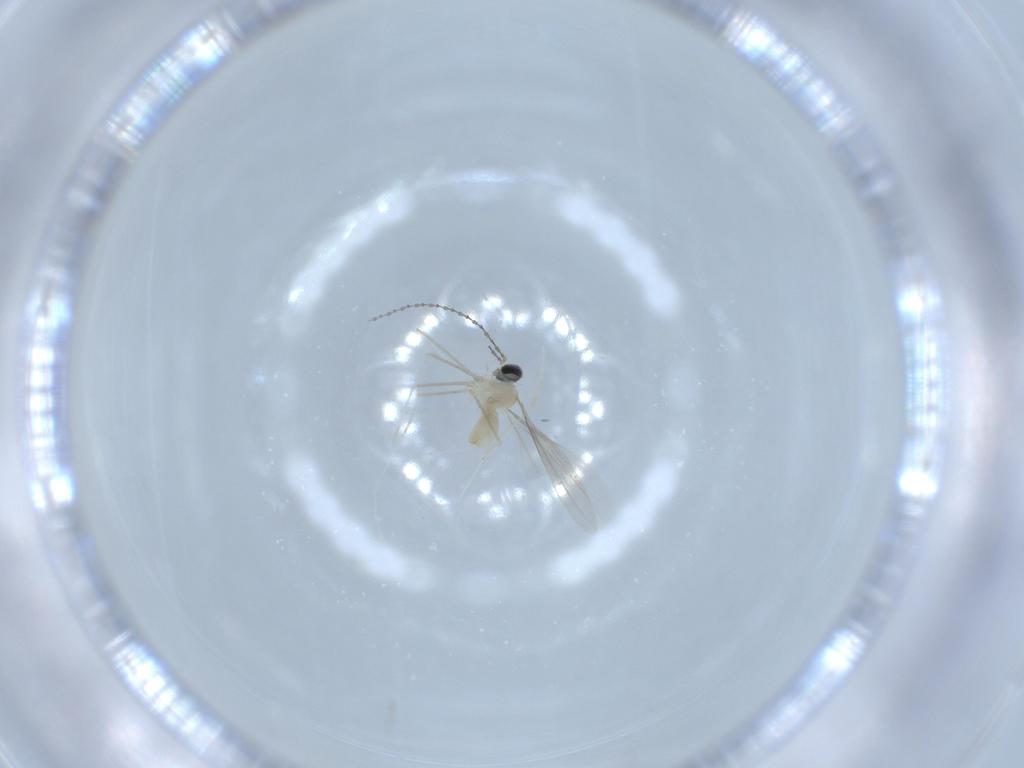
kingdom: Animalia
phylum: Arthropoda
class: Insecta
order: Diptera
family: Cecidomyiidae
